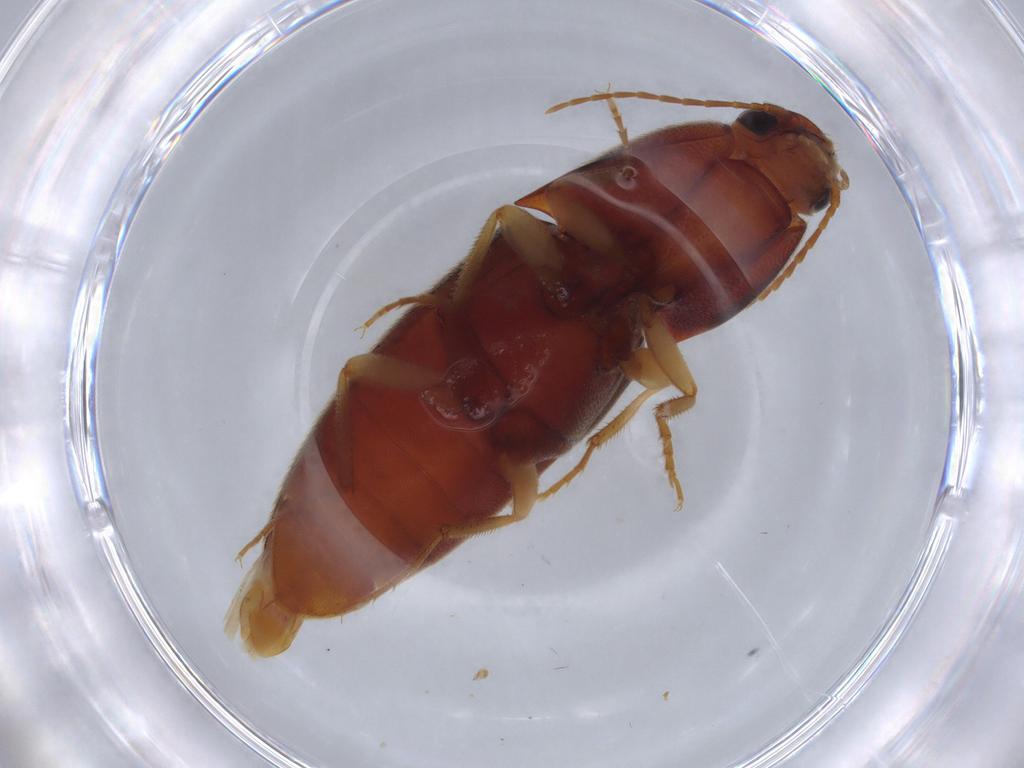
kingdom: Animalia
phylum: Arthropoda
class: Insecta
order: Coleoptera
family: Elateridae
